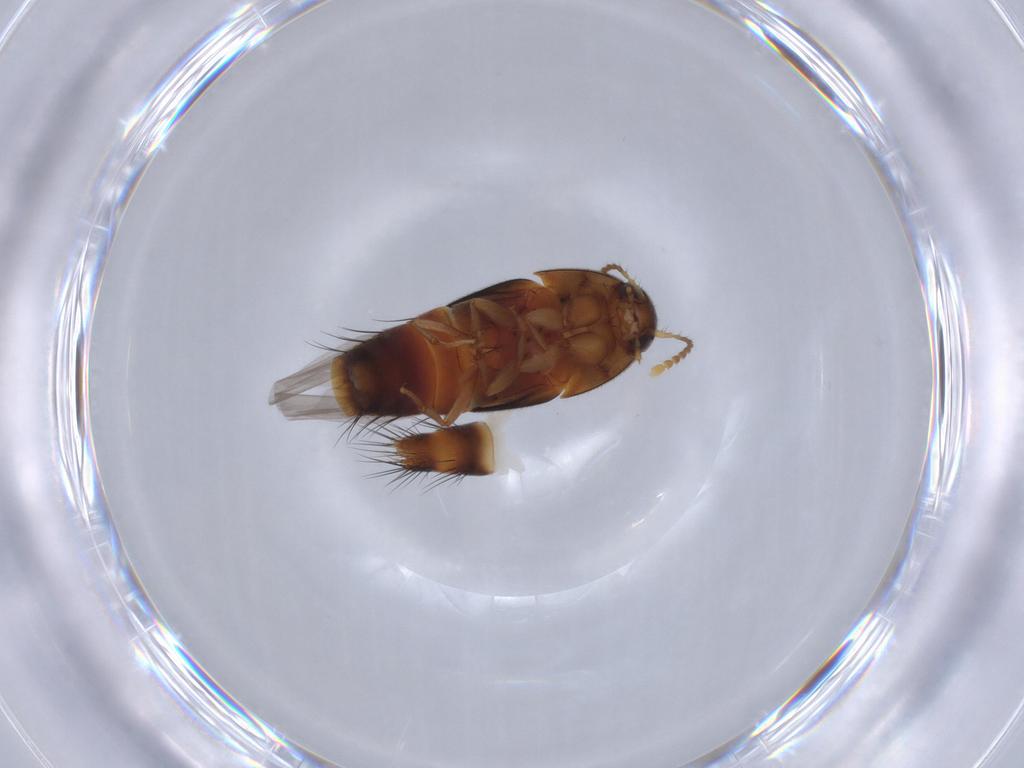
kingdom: Animalia
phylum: Arthropoda
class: Insecta
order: Coleoptera
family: Staphylinidae
